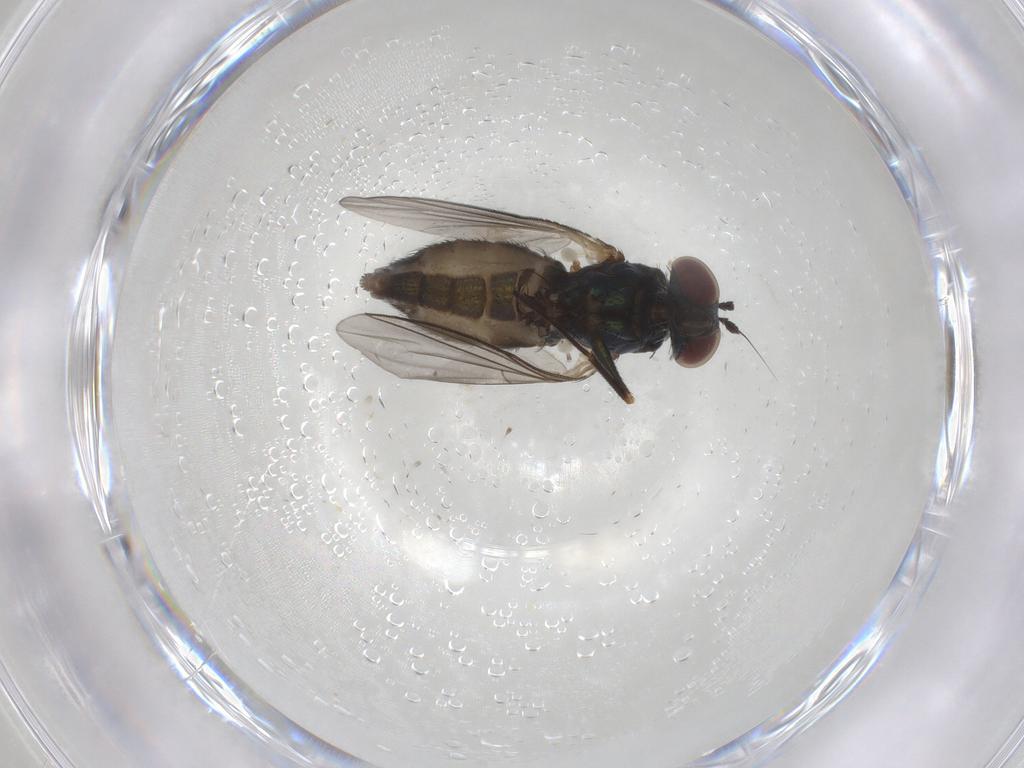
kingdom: Animalia
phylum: Arthropoda
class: Insecta
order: Diptera
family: Dolichopodidae
